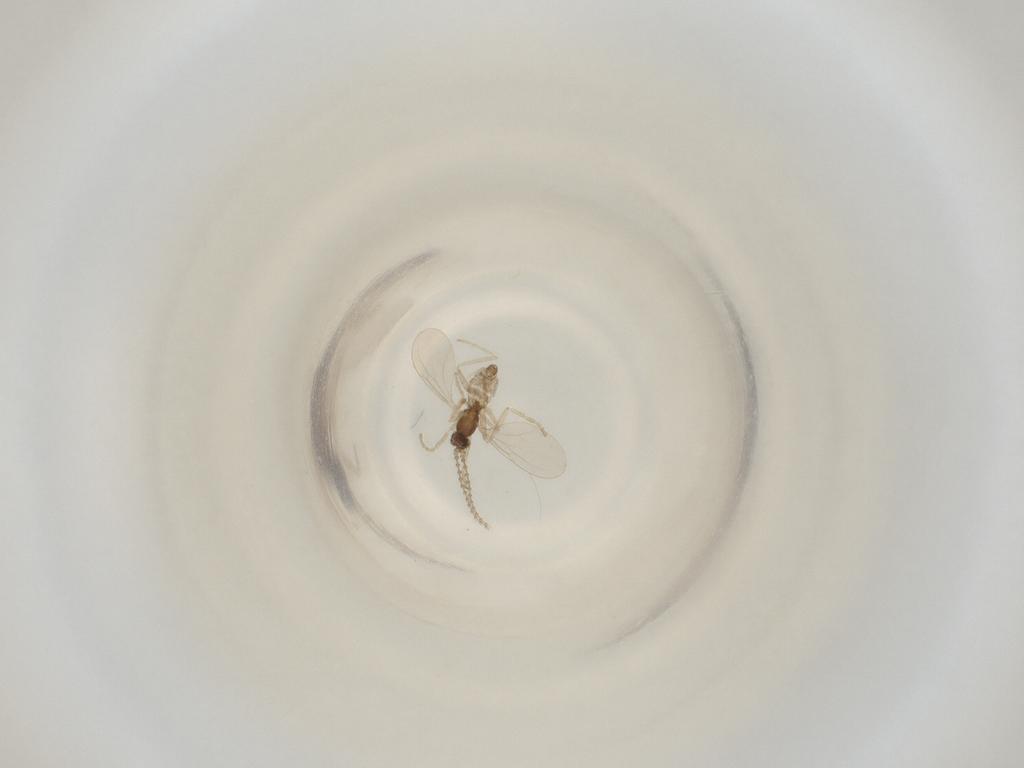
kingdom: Animalia
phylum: Arthropoda
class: Insecta
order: Diptera
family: Cecidomyiidae
